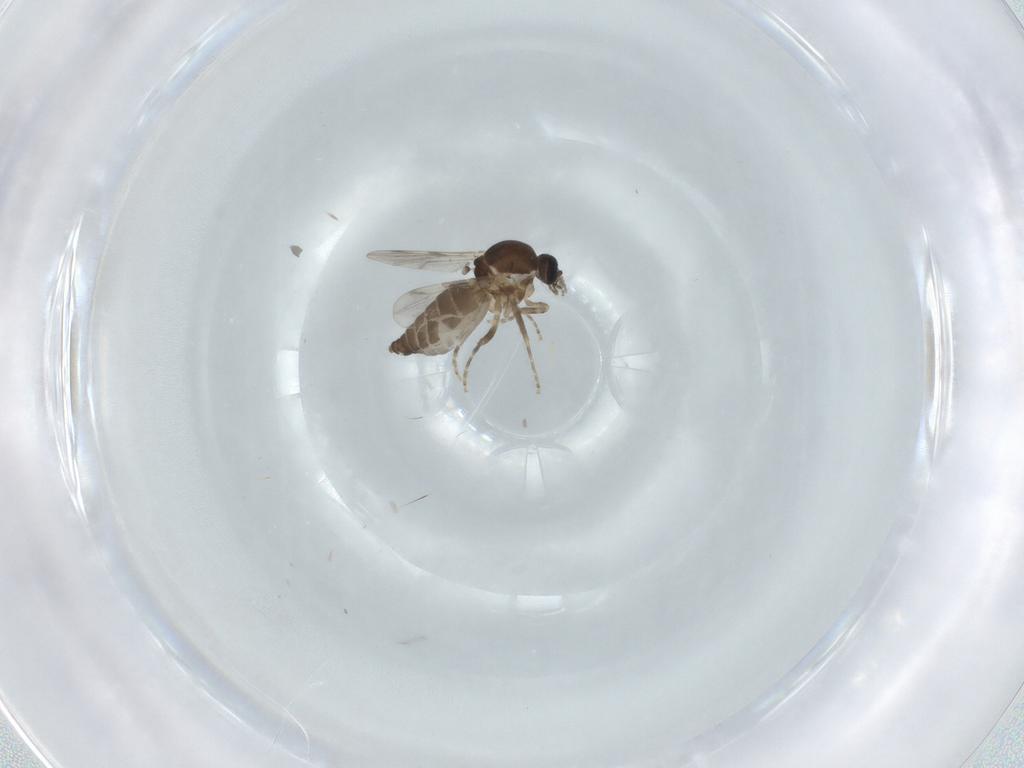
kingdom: Animalia
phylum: Arthropoda
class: Insecta
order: Diptera
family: Ceratopogonidae
